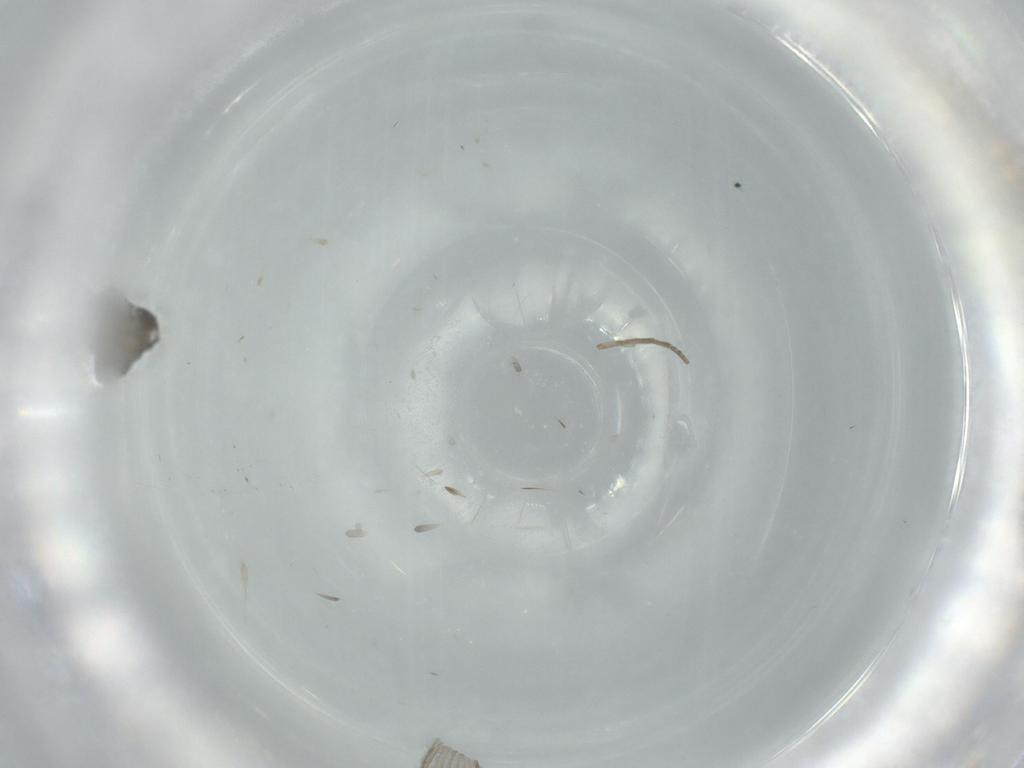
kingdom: Animalia
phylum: Arthropoda
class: Insecta
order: Diptera
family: Psychodidae
